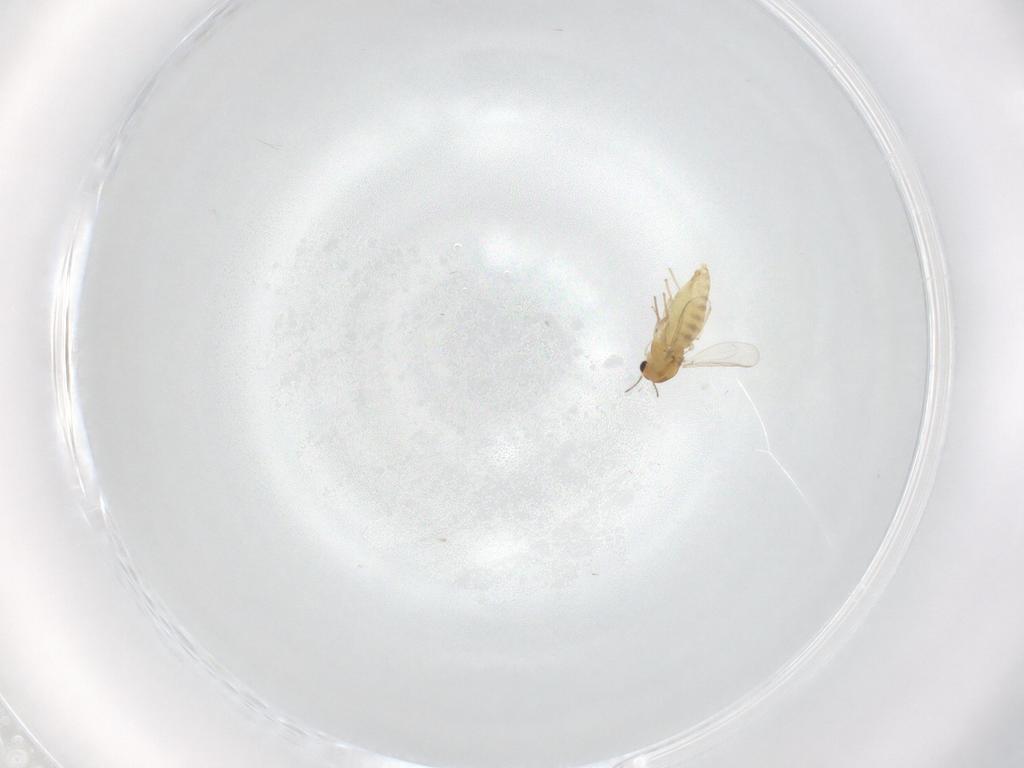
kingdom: Animalia
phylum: Arthropoda
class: Insecta
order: Diptera
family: Chironomidae
